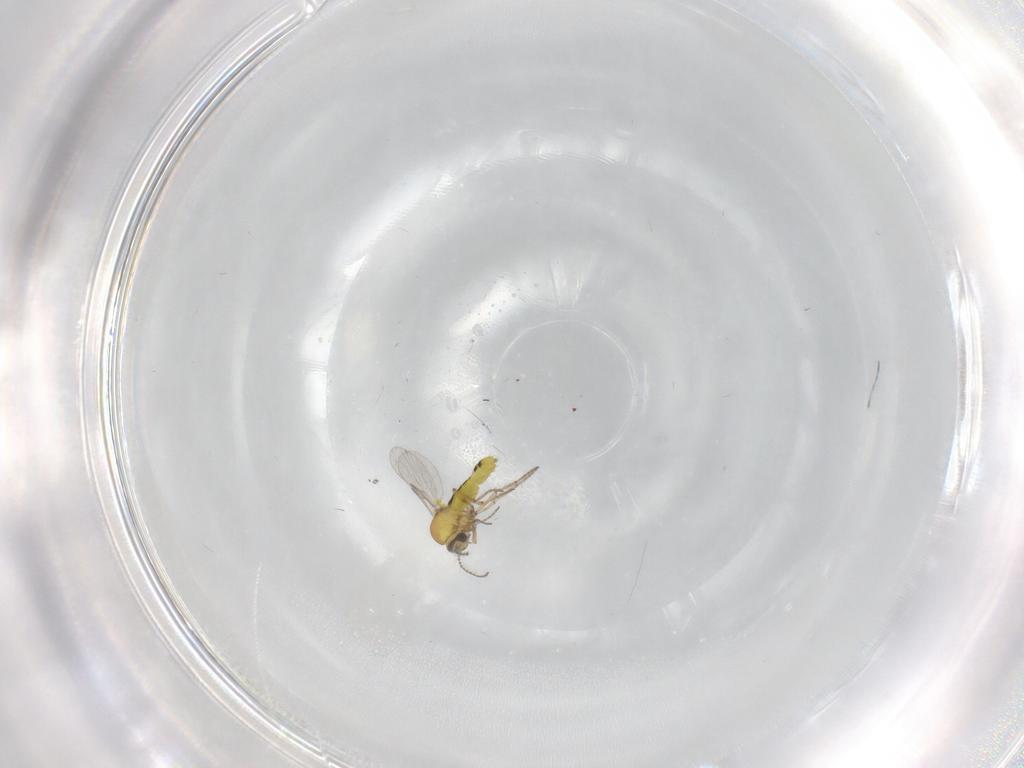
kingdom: Animalia
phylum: Arthropoda
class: Insecta
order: Diptera
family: Ceratopogonidae
